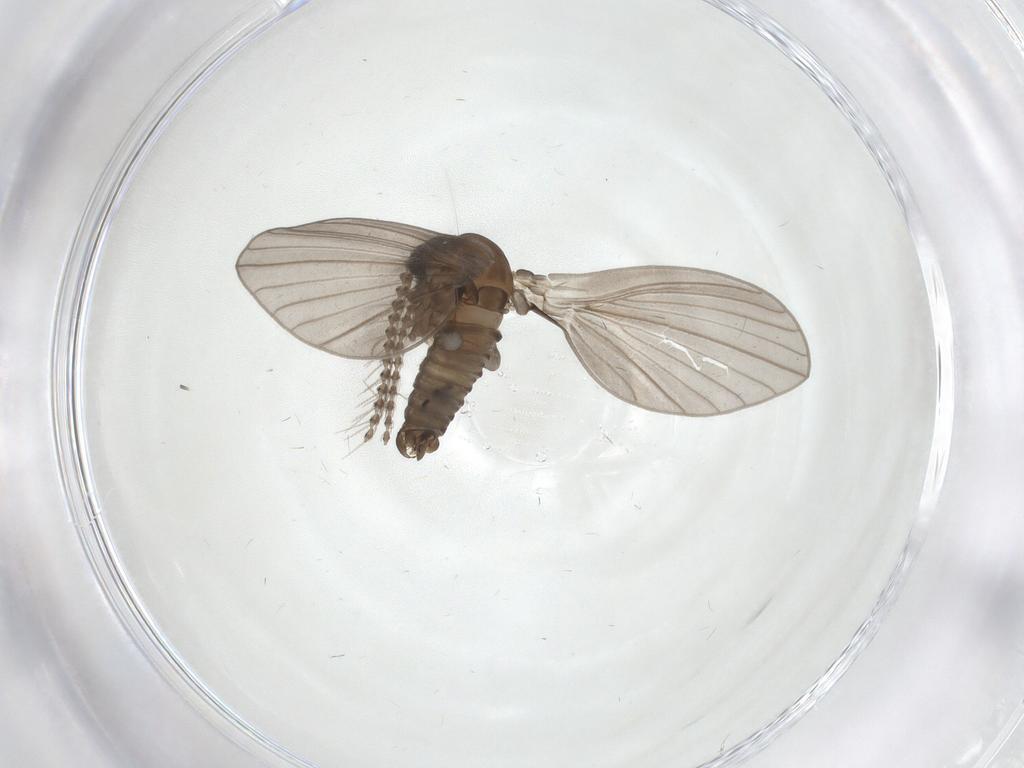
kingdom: Animalia
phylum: Arthropoda
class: Insecta
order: Diptera
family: Psychodidae
